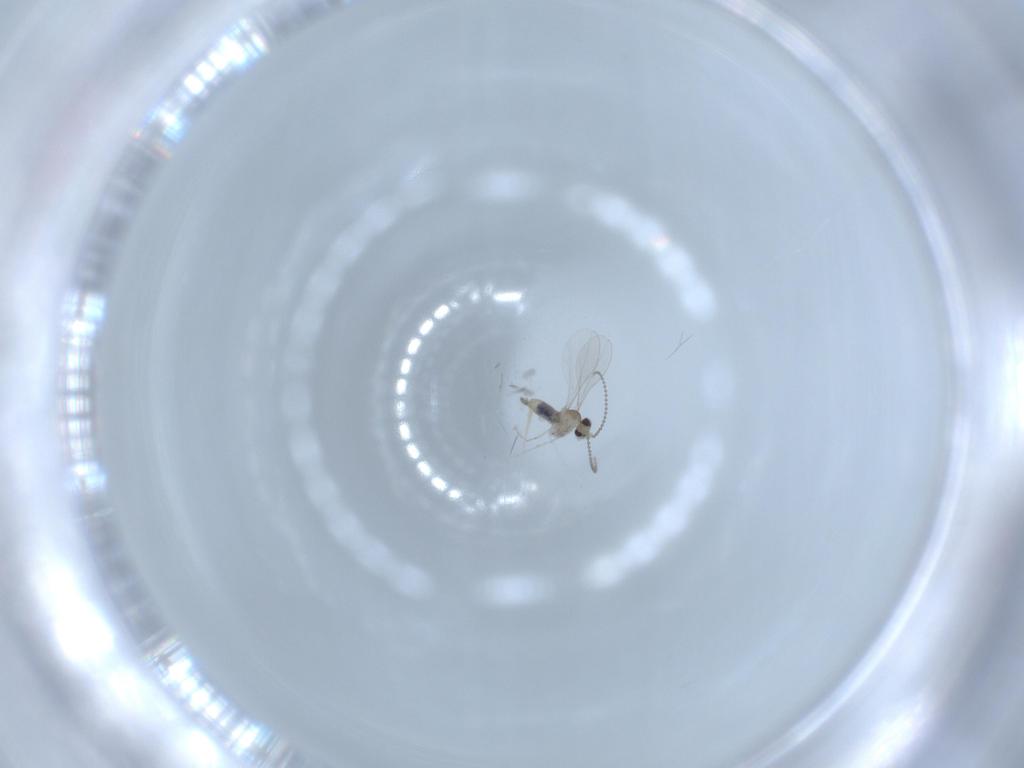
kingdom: Animalia
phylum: Arthropoda
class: Insecta
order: Diptera
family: Cecidomyiidae
